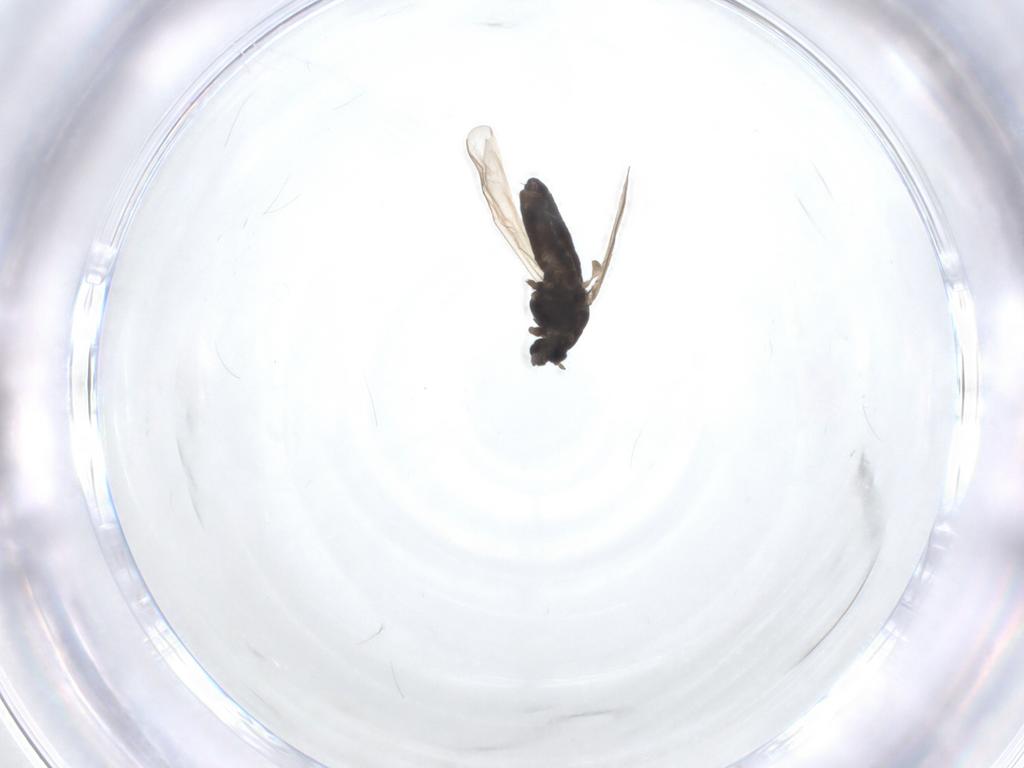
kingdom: Animalia
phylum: Arthropoda
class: Insecta
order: Diptera
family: Chironomidae
